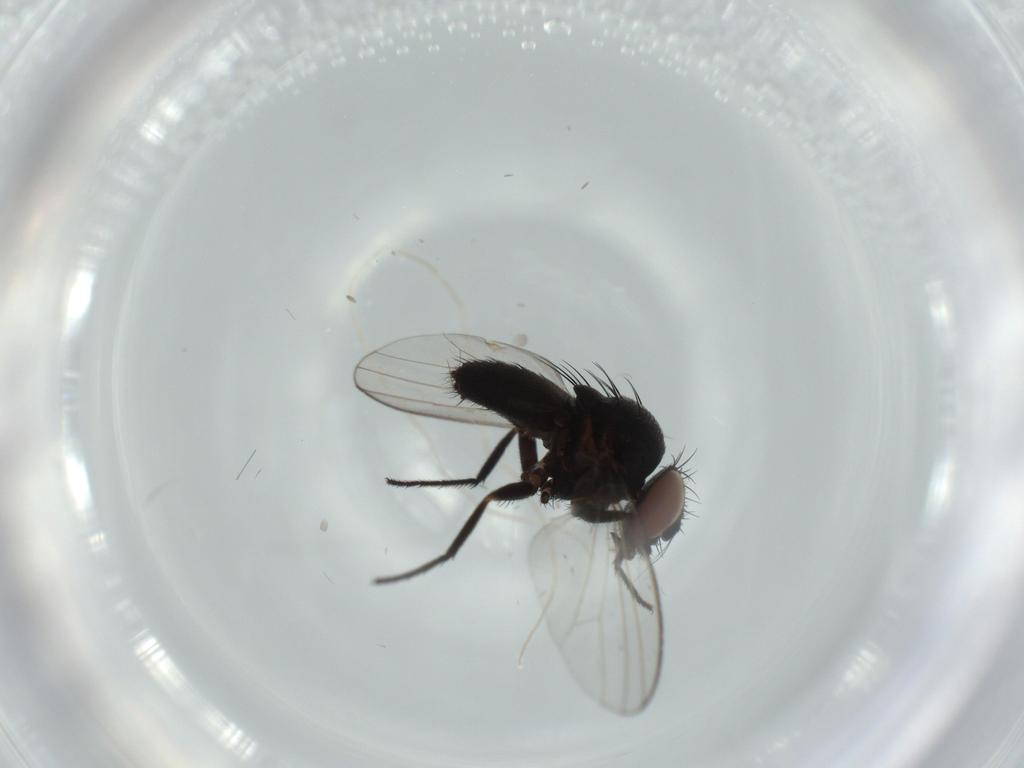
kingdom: Animalia
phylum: Arthropoda
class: Insecta
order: Diptera
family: Milichiidae
